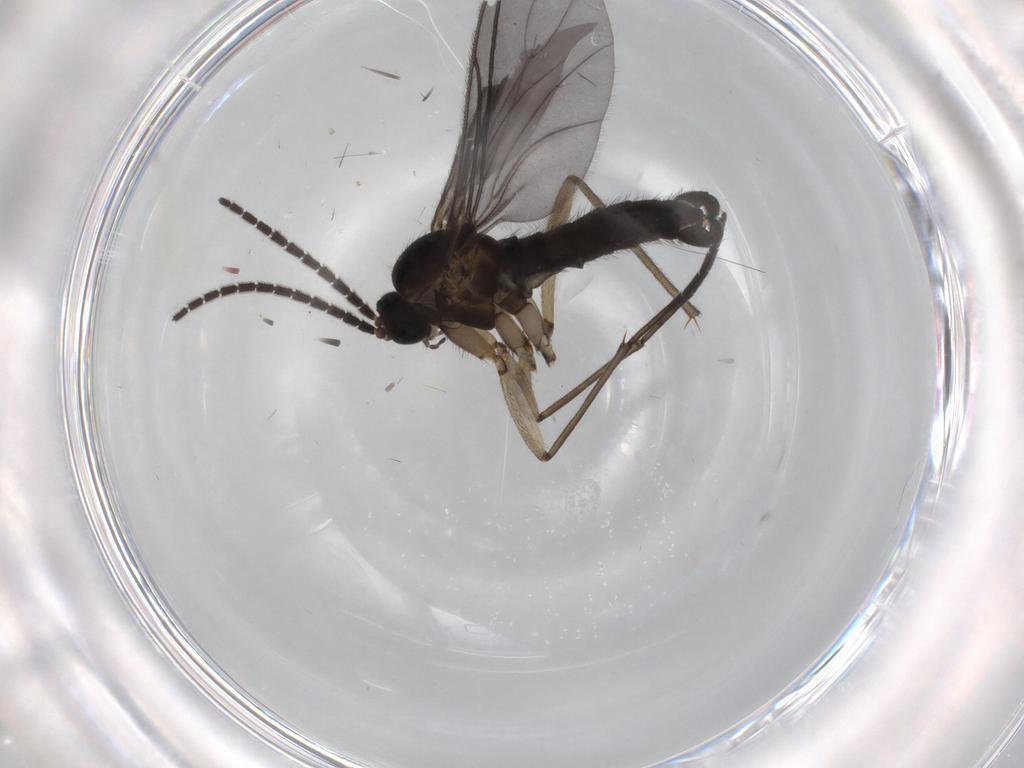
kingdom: Animalia
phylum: Arthropoda
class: Insecta
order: Diptera
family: Sciaridae
